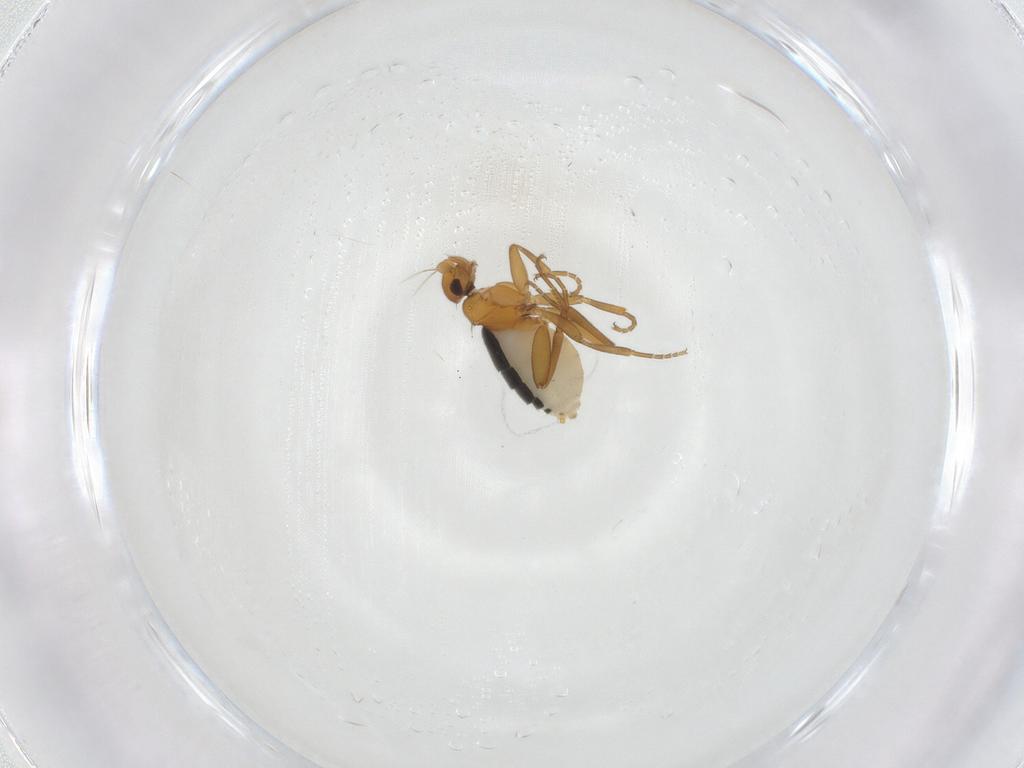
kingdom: Animalia
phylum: Arthropoda
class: Insecta
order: Diptera
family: Phoridae
